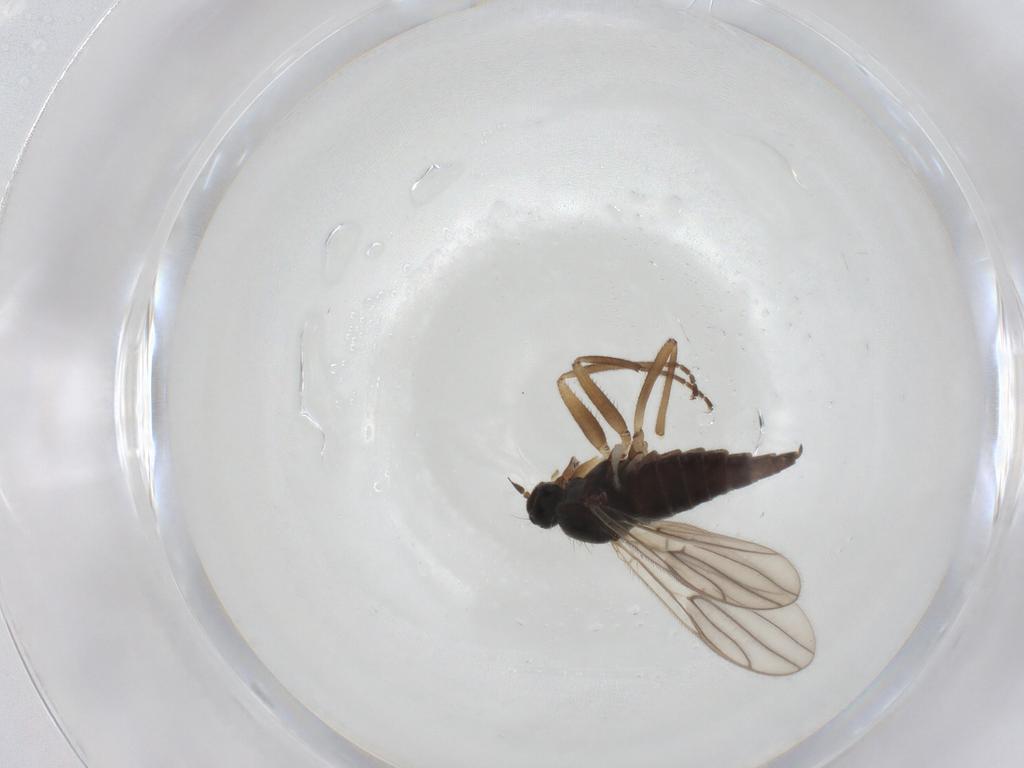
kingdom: Animalia
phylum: Arthropoda
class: Insecta
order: Diptera
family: Hybotidae
